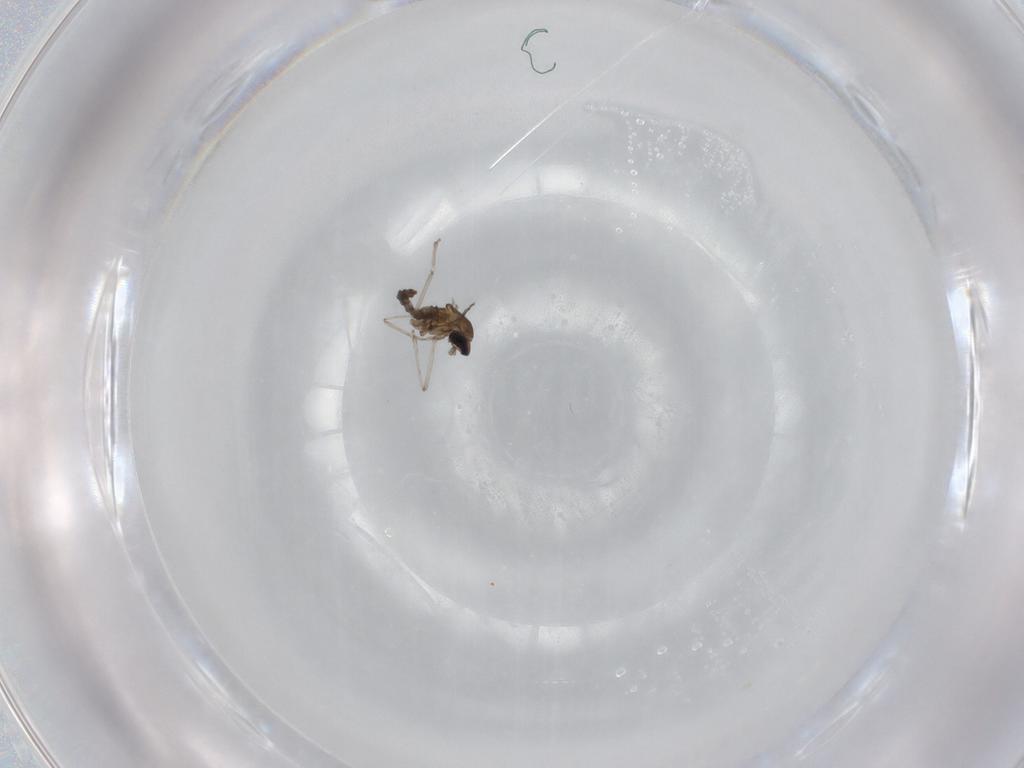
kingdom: Animalia
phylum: Arthropoda
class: Insecta
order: Diptera
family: Cecidomyiidae
